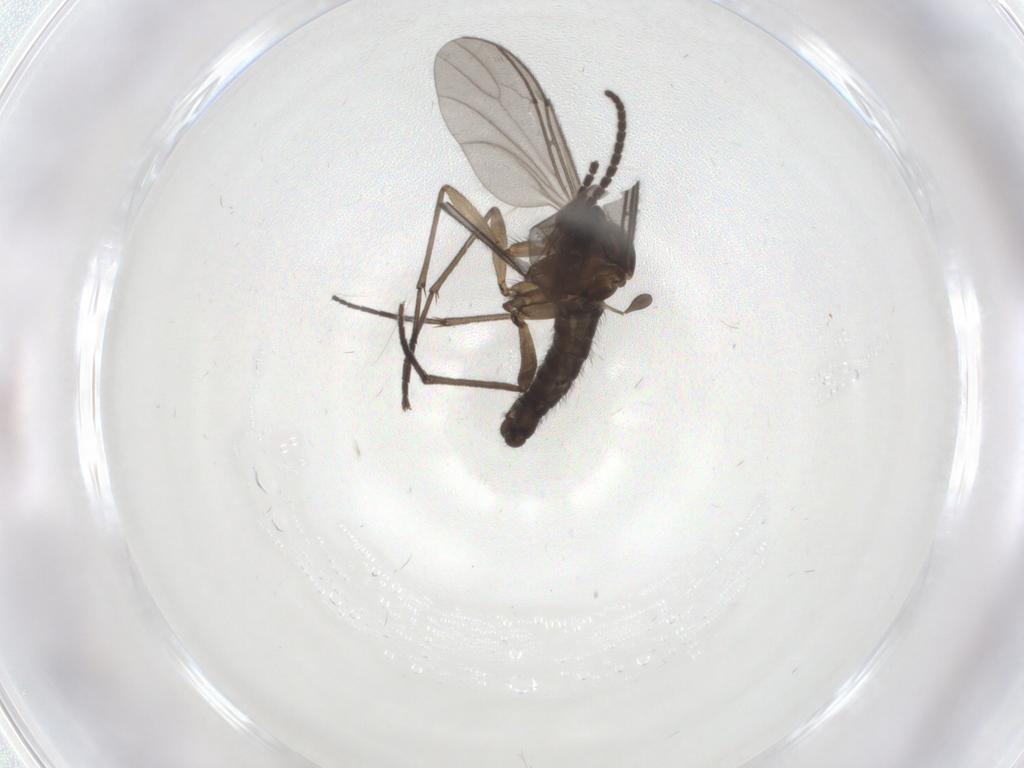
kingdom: Animalia
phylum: Arthropoda
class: Insecta
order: Diptera
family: Sciaridae
